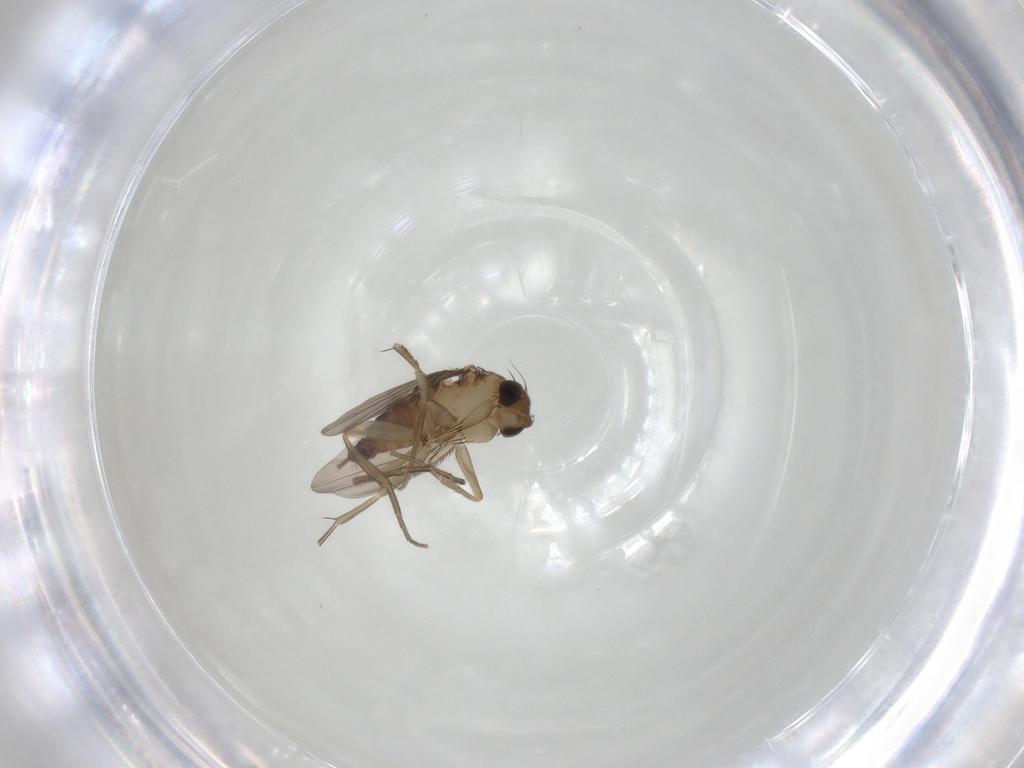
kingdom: Animalia
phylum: Arthropoda
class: Insecta
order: Diptera
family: Phoridae
